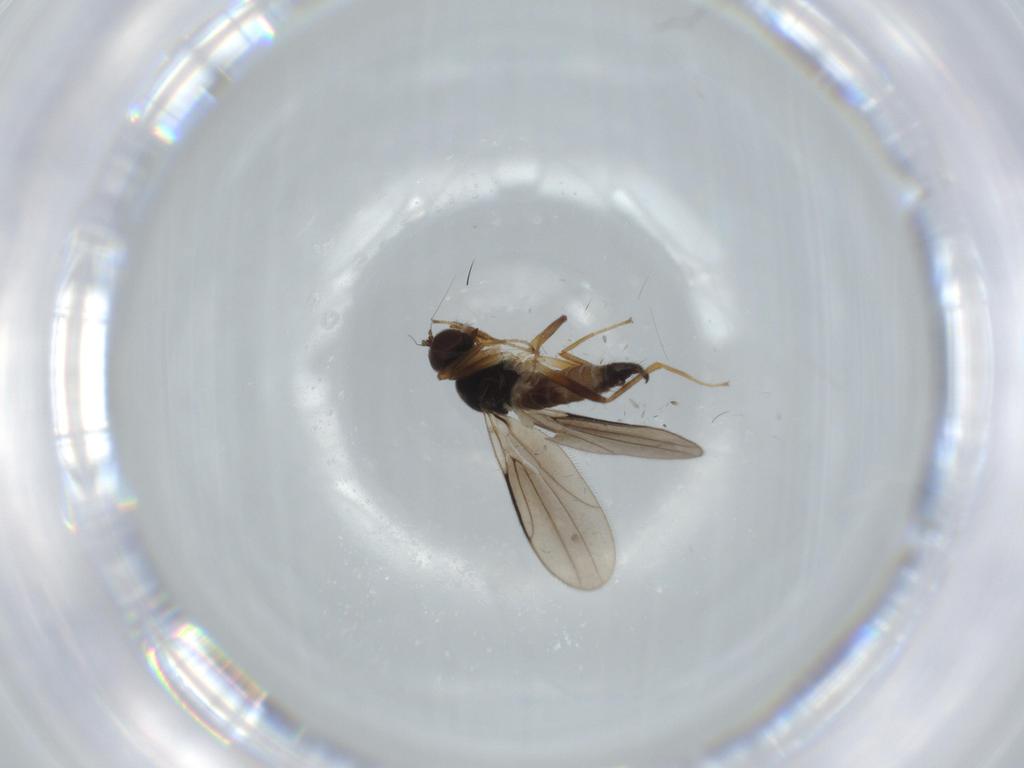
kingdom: Animalia
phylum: Arthropoda
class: Insecta
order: Diptera
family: Hybotidae
